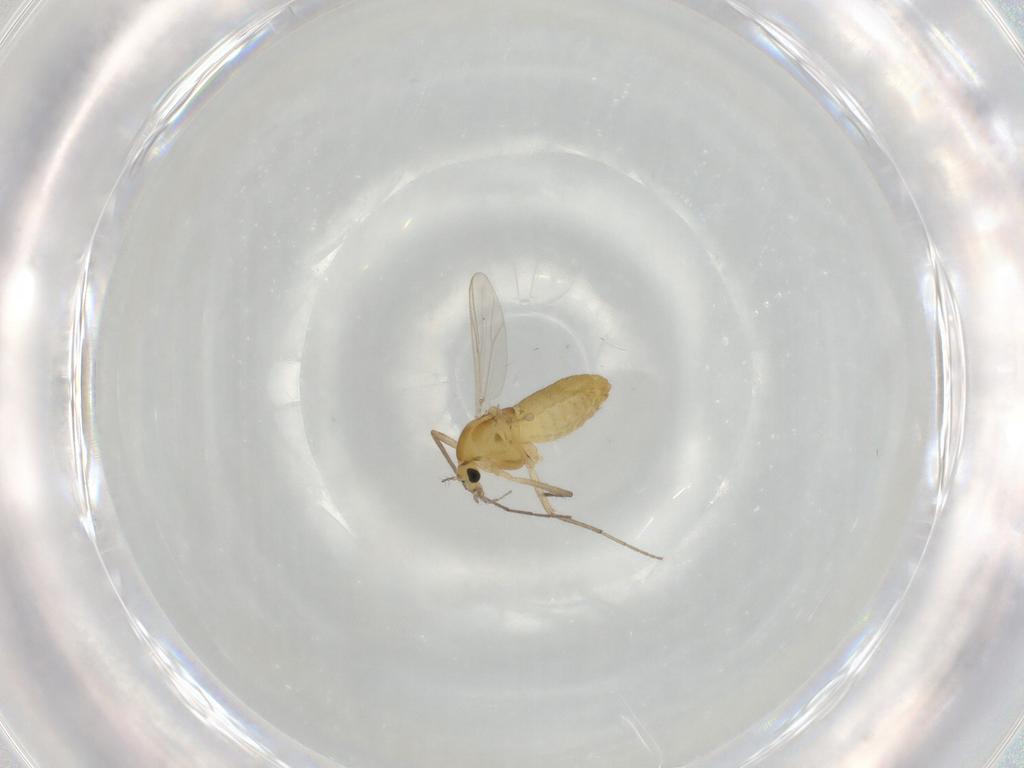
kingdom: Animalia
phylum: Arthropoda
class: Insecta
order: Diptera
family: Chironomidae
